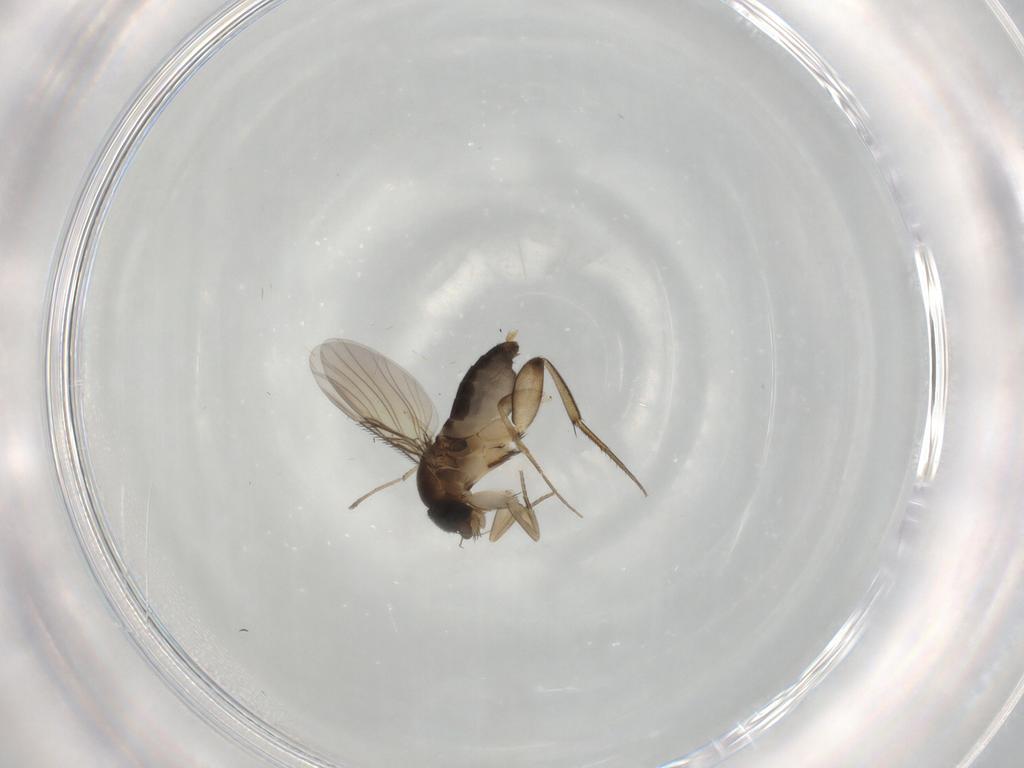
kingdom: Animalia
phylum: Arthropoda
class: Insecta
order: Diptera
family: Phoridae
